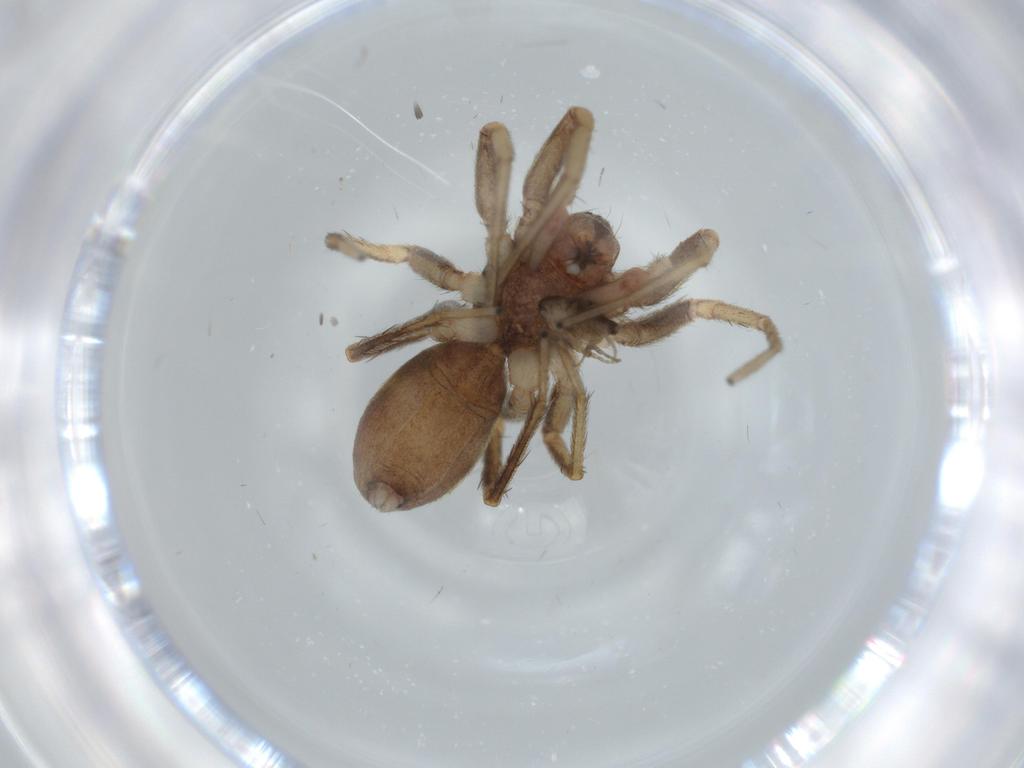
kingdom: Animalia
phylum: Arthropoda
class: Arachnida
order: Araneae
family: Corinnidae
